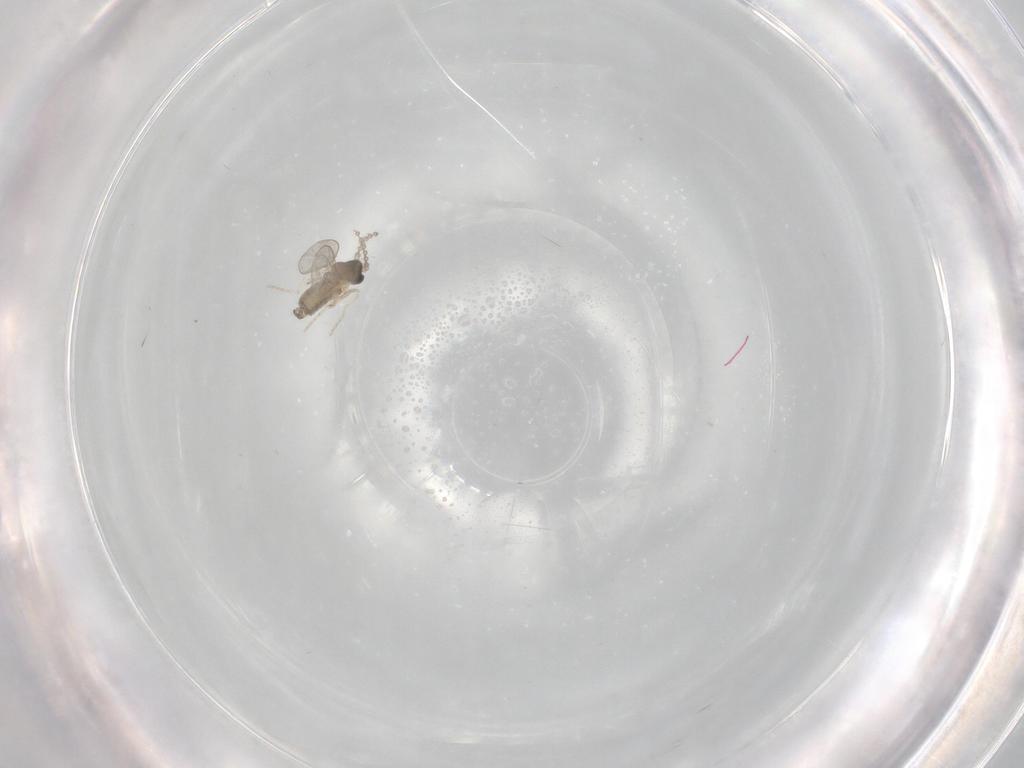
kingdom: Animalia
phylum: Arthropoda
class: Insecta
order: Diptera
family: Cecidomyiidae
